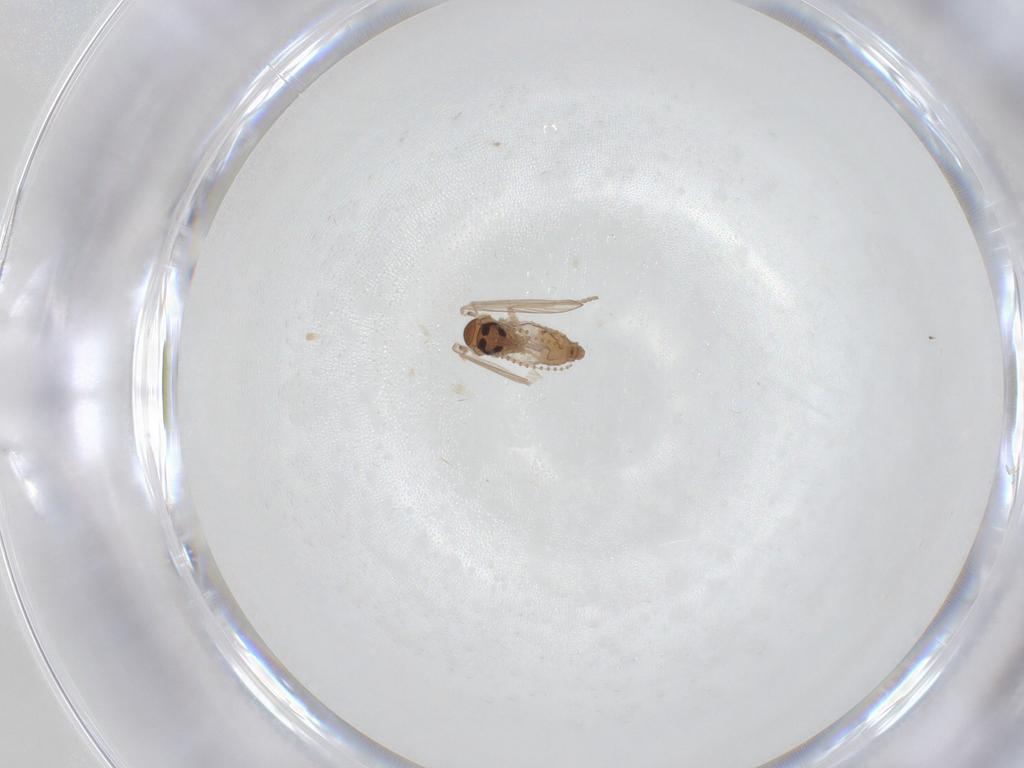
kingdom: Animalia
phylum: Arthropoda
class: Insecta
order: Diptera
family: Psychodidae
